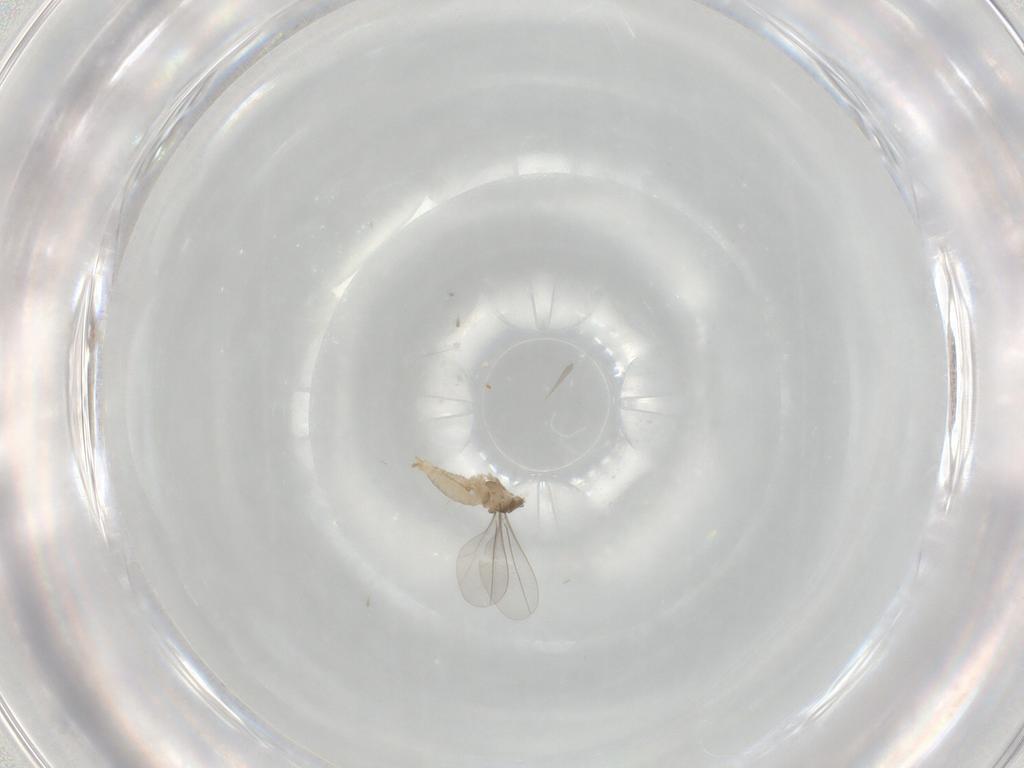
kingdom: Animalia
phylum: Arthropoda
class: Insecta
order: Diptera
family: Cecidomyiidae
